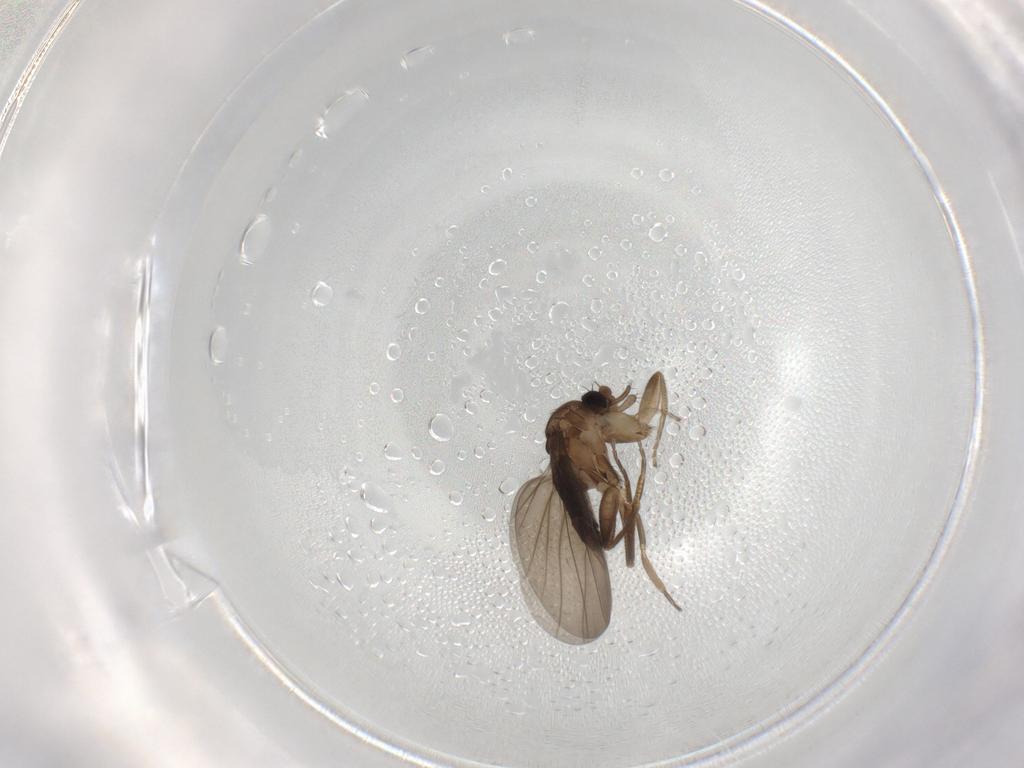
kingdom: Animalia
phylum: Arthropoda
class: Insecta
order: Diptera
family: Phoridae
